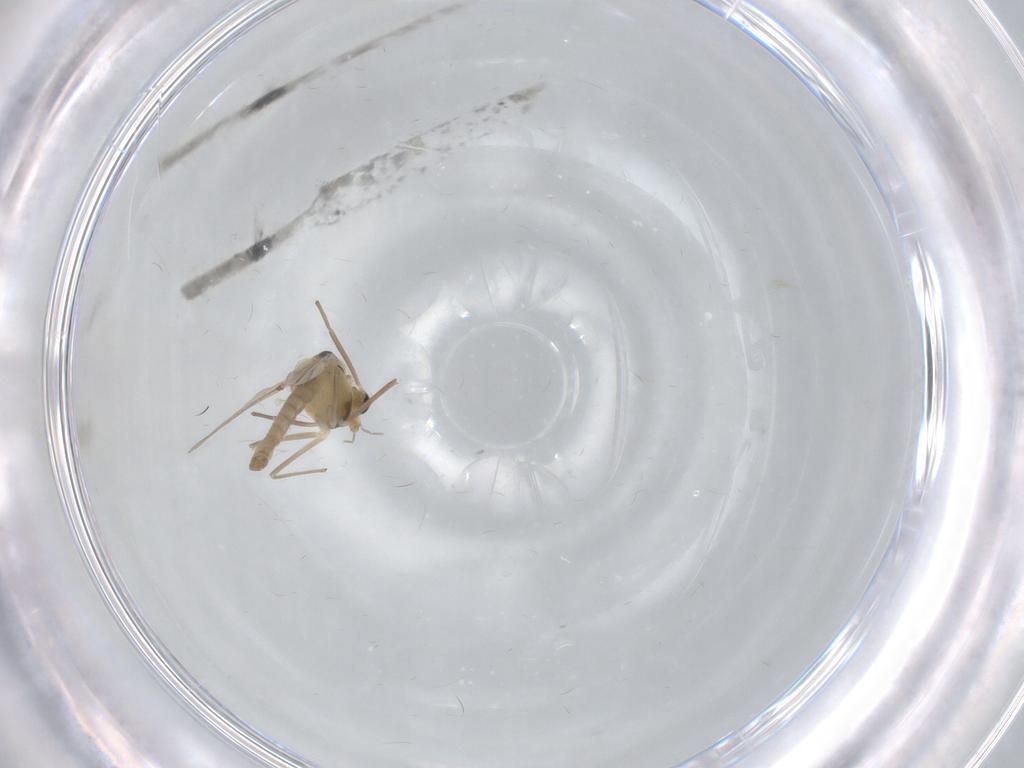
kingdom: Animalia
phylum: Arthropoda
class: Insecta
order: Diptera
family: Chironomidae
